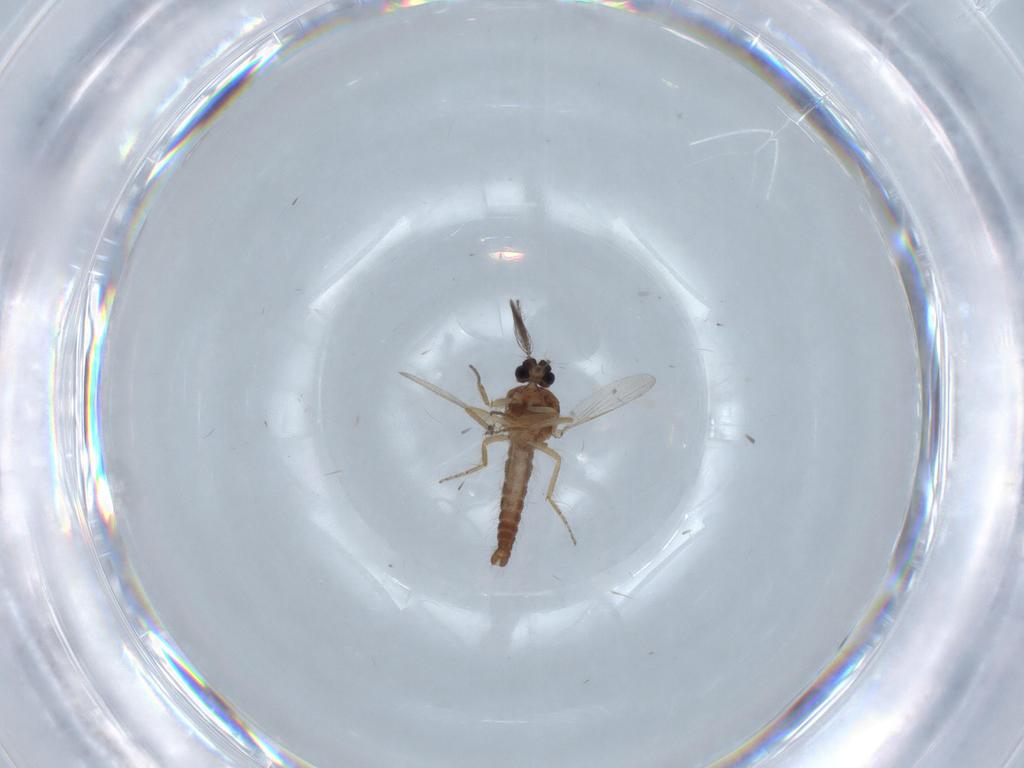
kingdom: Animalia
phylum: Arthropoda
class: Insecta
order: Diptera
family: Ceratopogonidae
